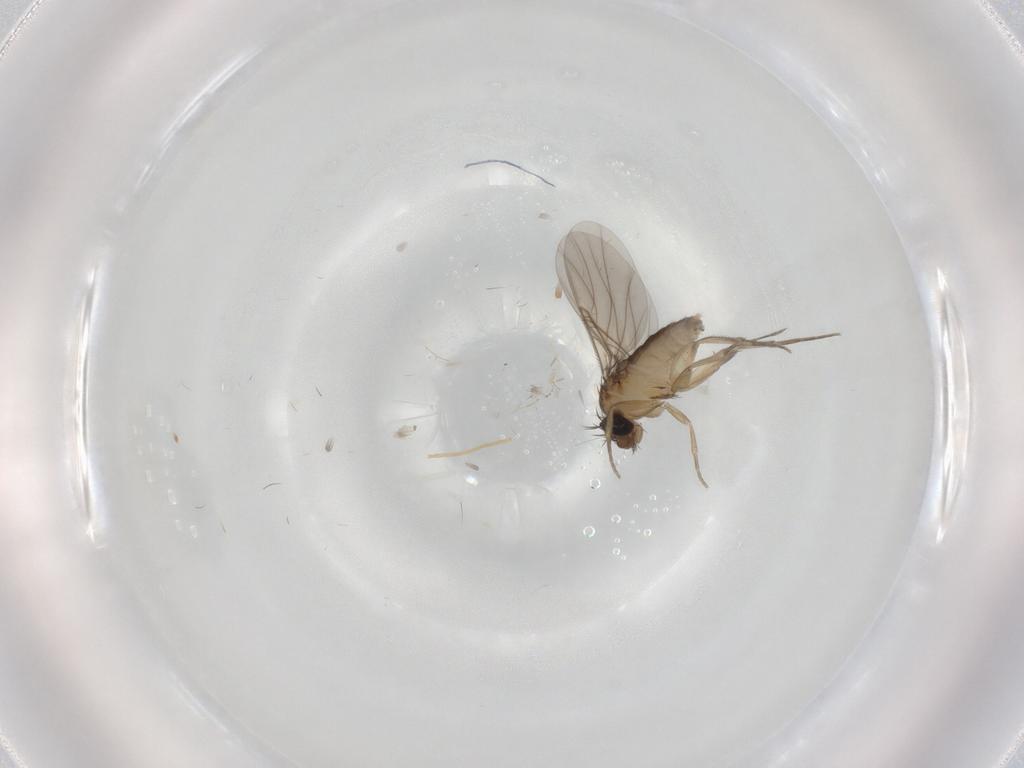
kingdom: Animalia
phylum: Arthropoda
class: Insecta
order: Diptera
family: Phoridae
